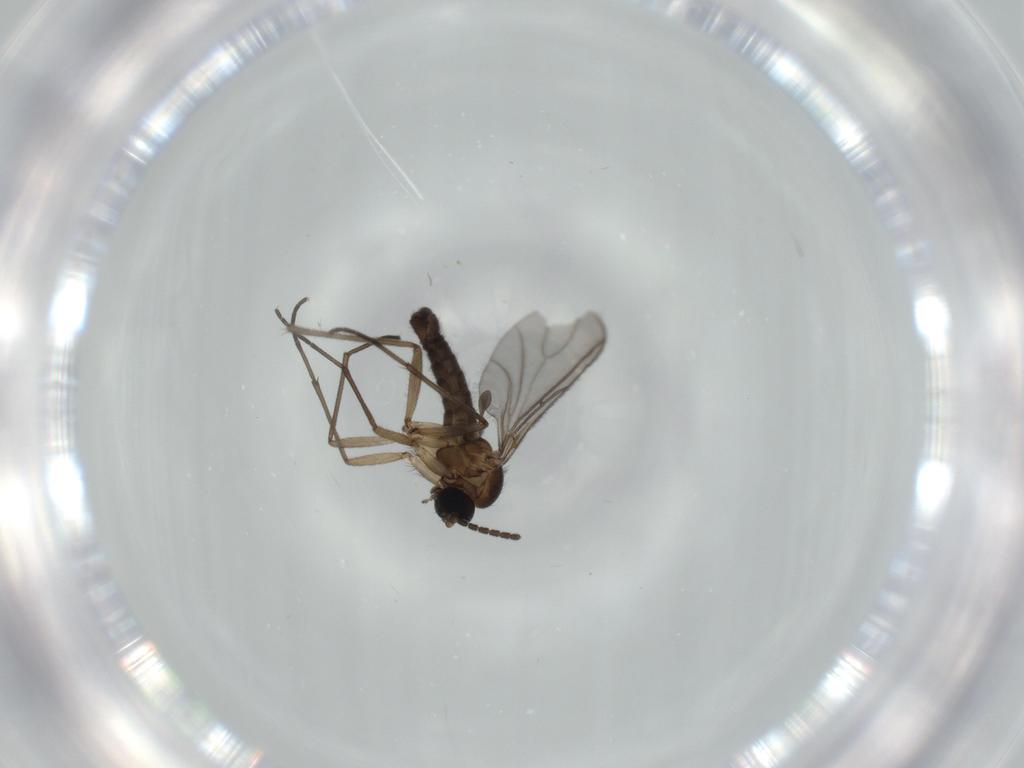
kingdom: Animalia
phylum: Arthropoda
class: Insecta
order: Diptera
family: Sciaridae
